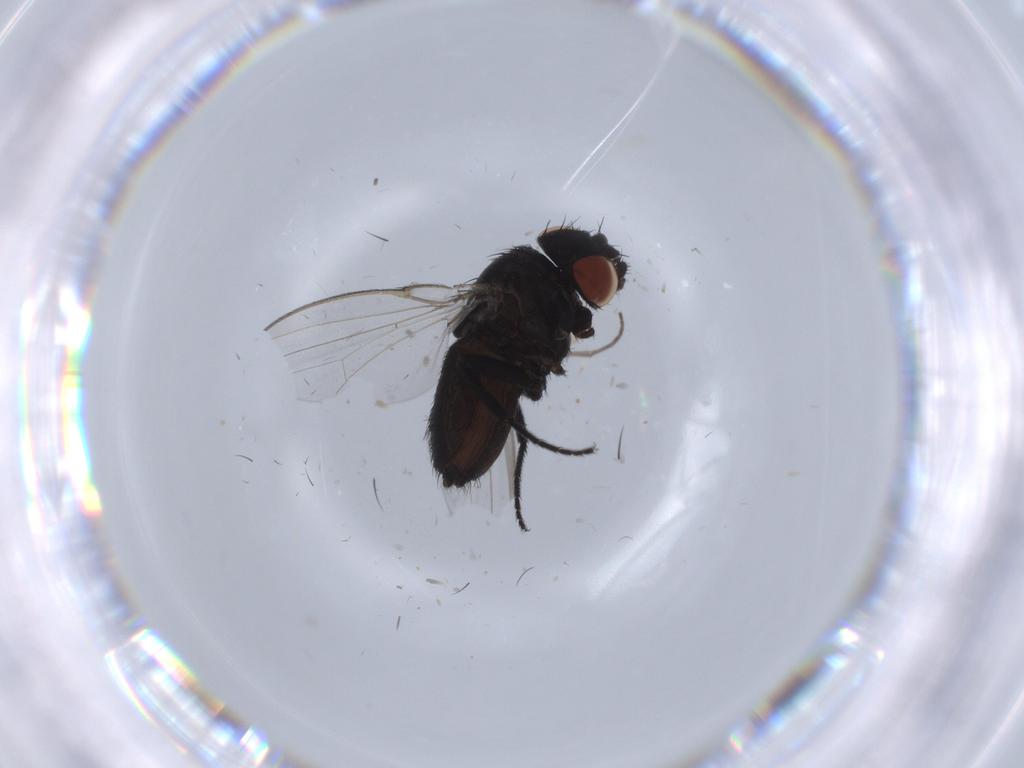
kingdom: Animalia
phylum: Arthropoda
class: Insecta
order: Diptera
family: Milichiidae
